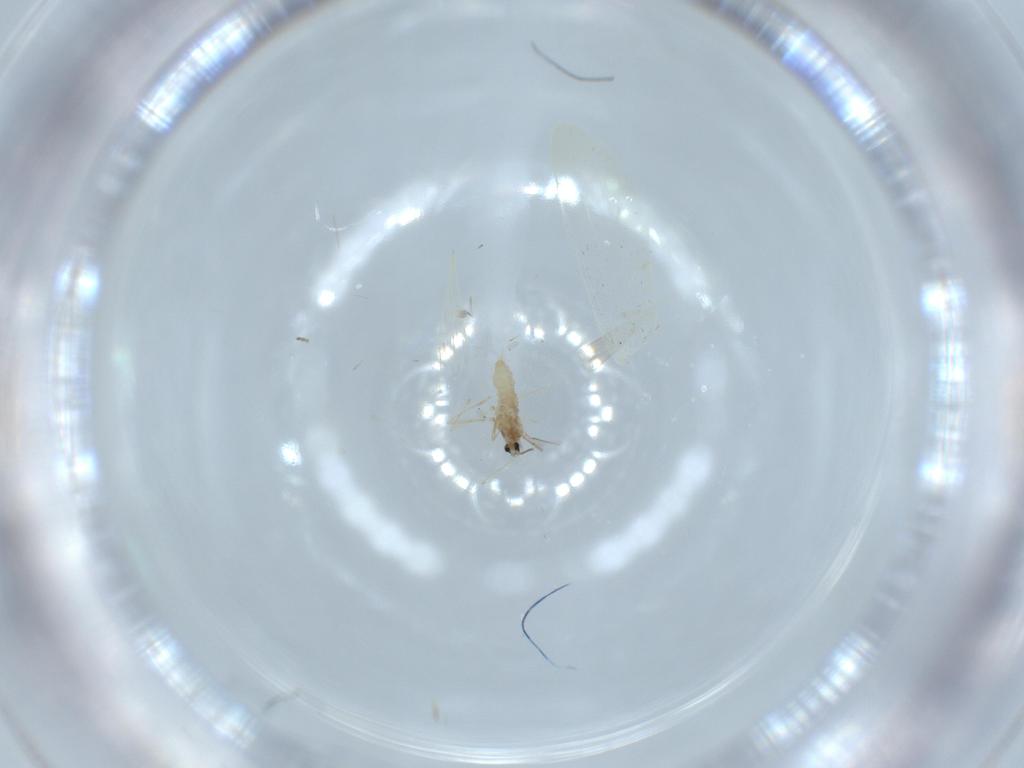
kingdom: Animalia
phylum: Arthropoda
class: Insecta
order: Diptera
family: Cecidomyiidae
